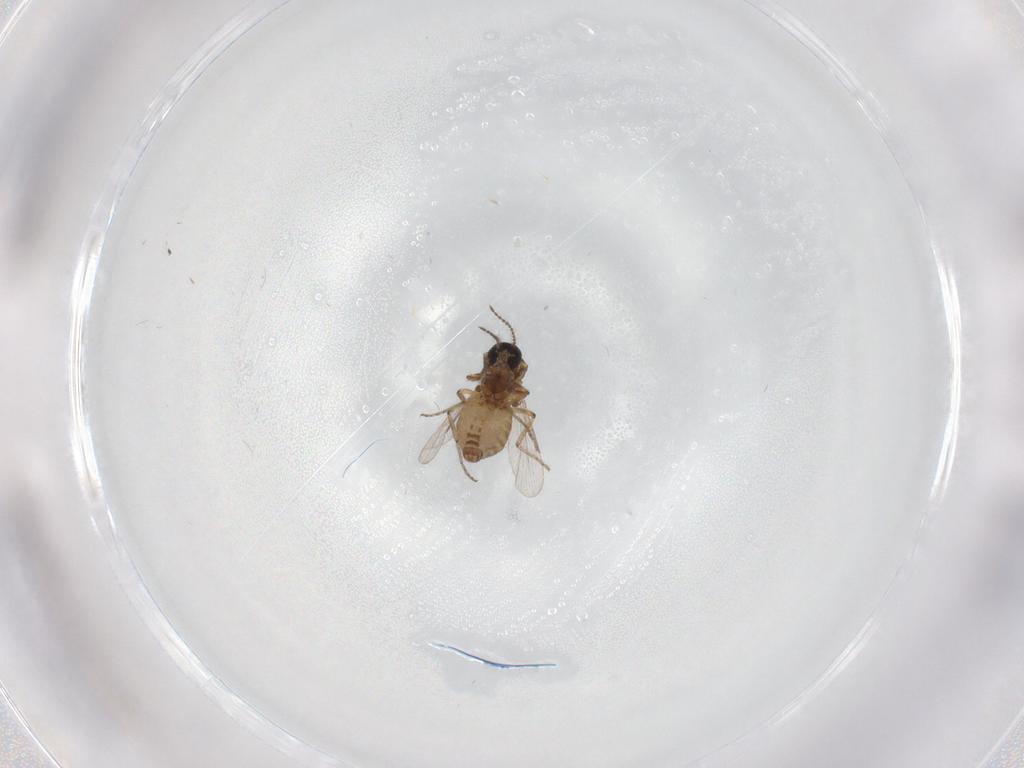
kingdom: Animalia
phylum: Arthropoda
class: Insecta
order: Diptera
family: Ceratopogonidae
